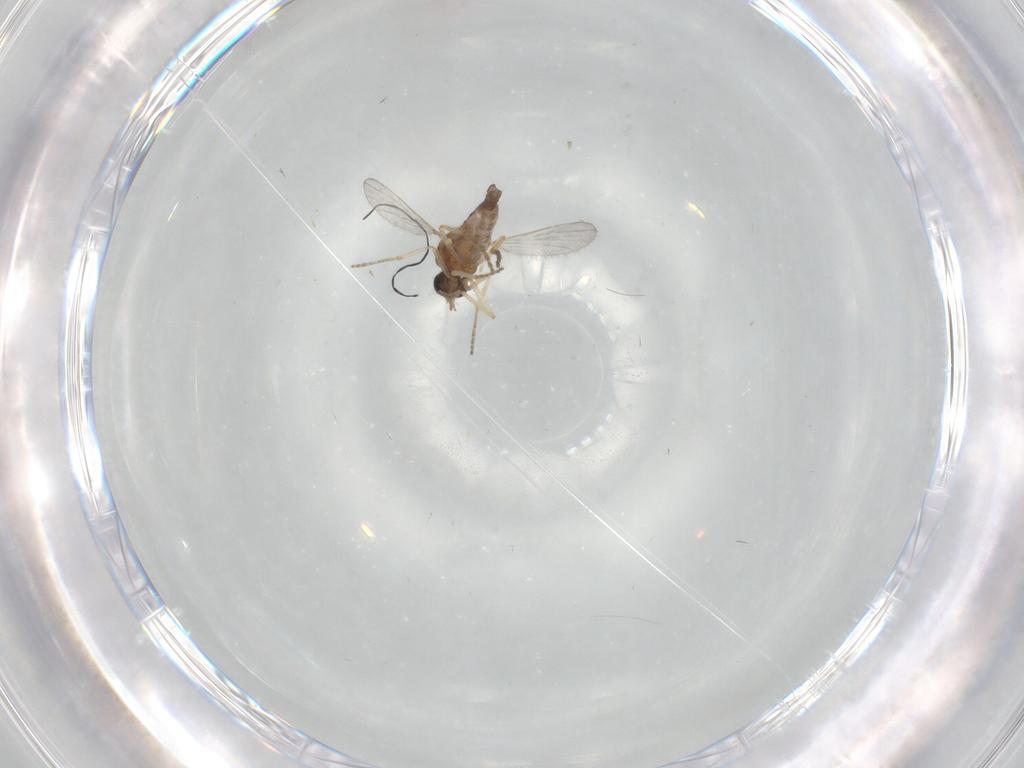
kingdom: Animalia
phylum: Arthropoda
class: Insecta
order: Diptera
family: Ceratopogonidae
